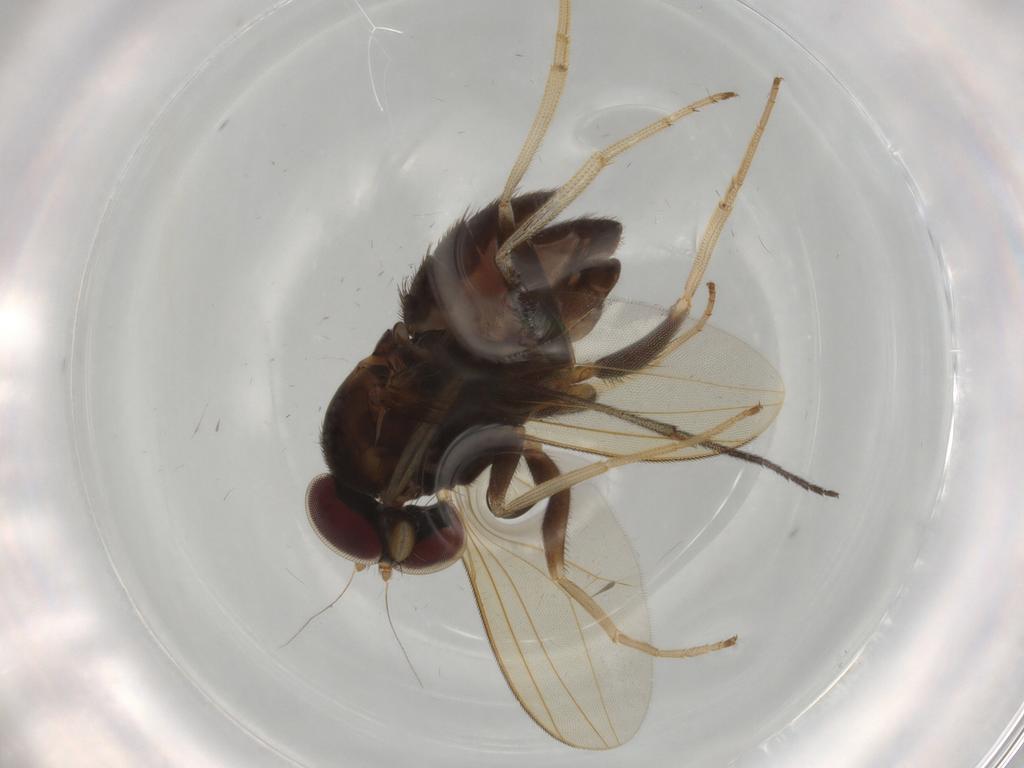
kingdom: Animalia
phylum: Arthropoda
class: Insecta
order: Diptera
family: Dolichopodidae
